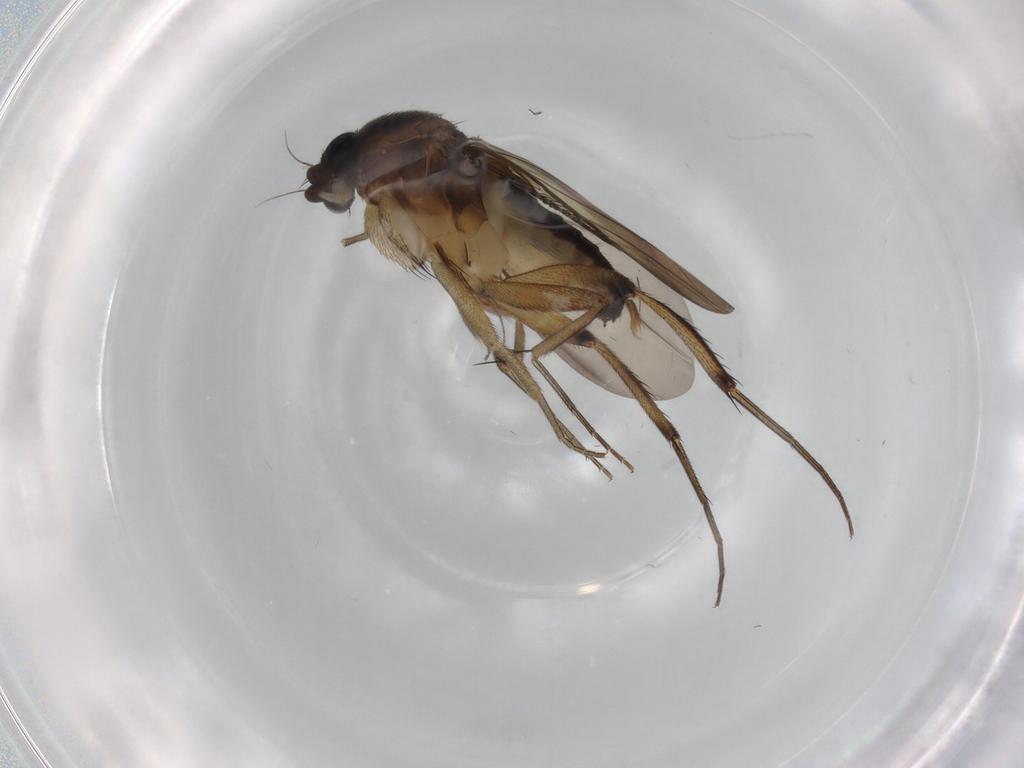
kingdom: Animalia
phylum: Arthropoda
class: Insecta
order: Diptera
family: Phoridae
